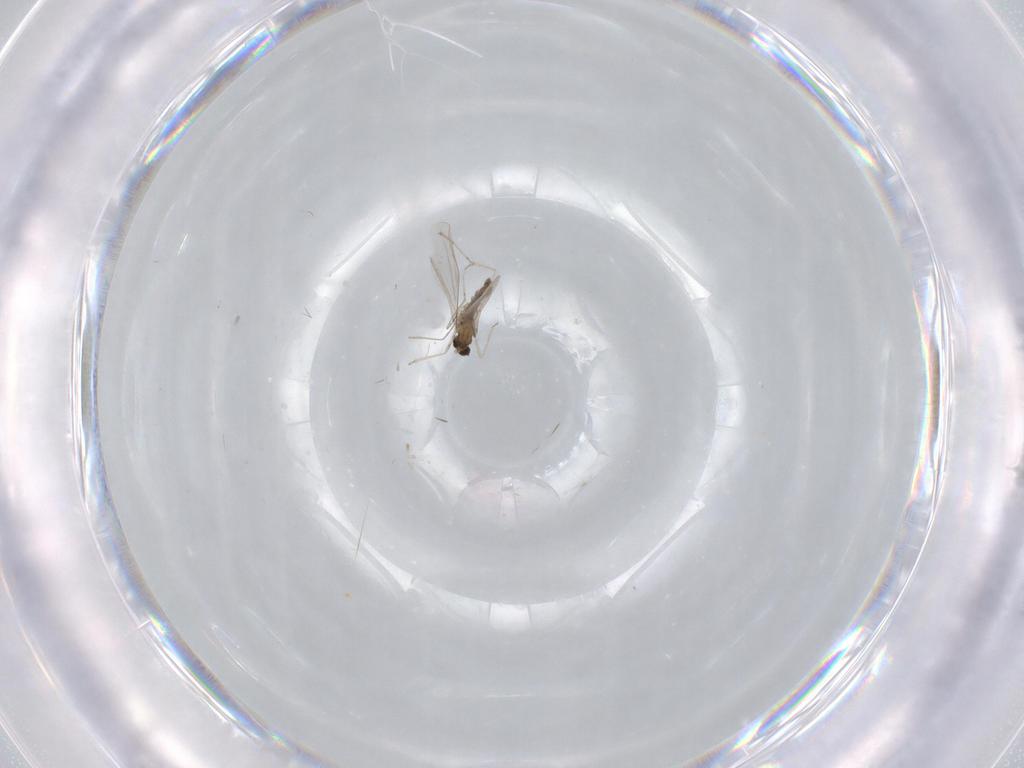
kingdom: Animalia
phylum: Arthropoda
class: Insecta
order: Diptera
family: Cecidomyiidae
